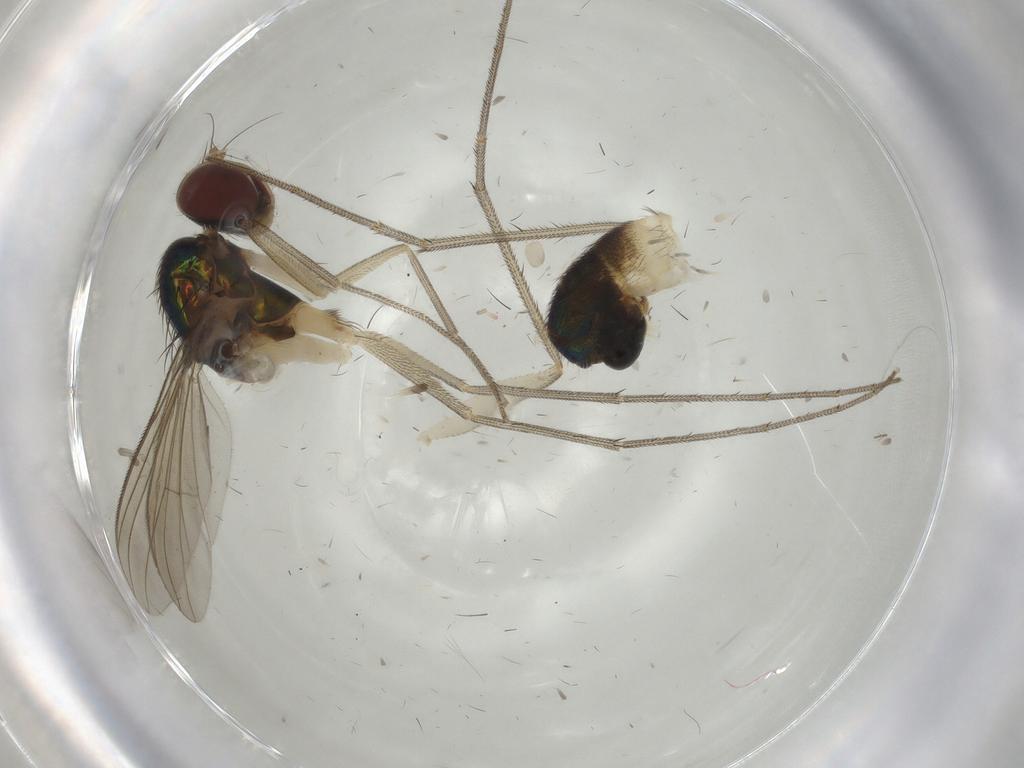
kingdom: Animalia
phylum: Arthropoda
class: Insecta
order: Diptera
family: Dolichopodidae
